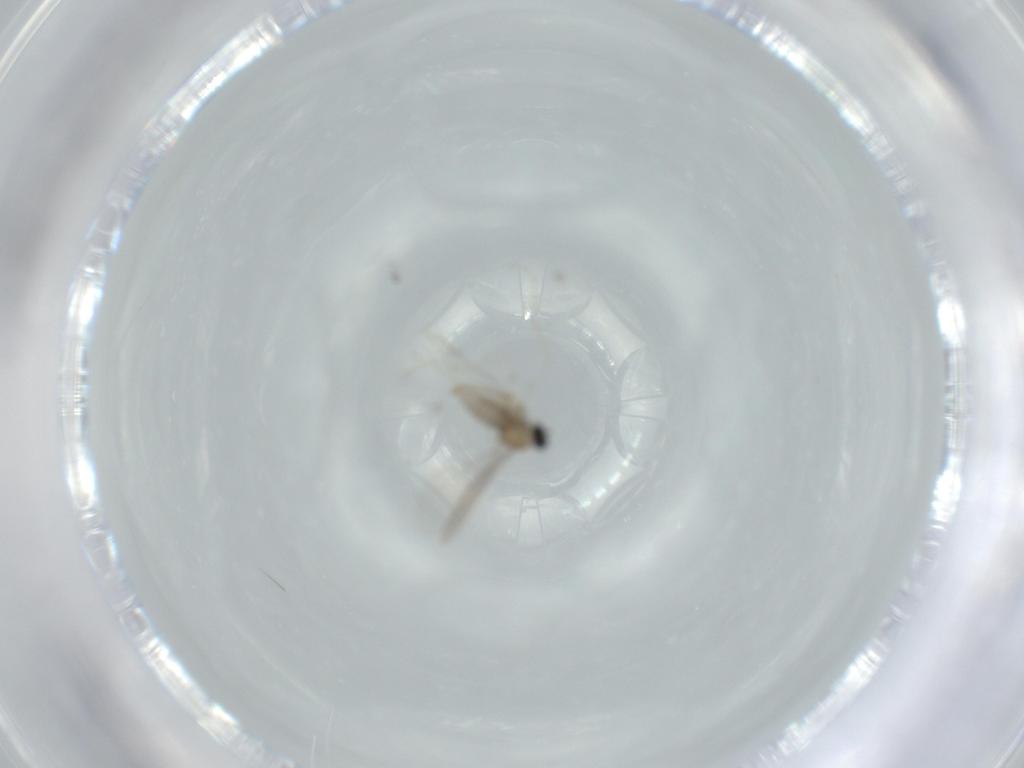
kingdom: Animalia
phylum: Arthropoda
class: Insecta
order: Diptera
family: Cecidomyiidae
